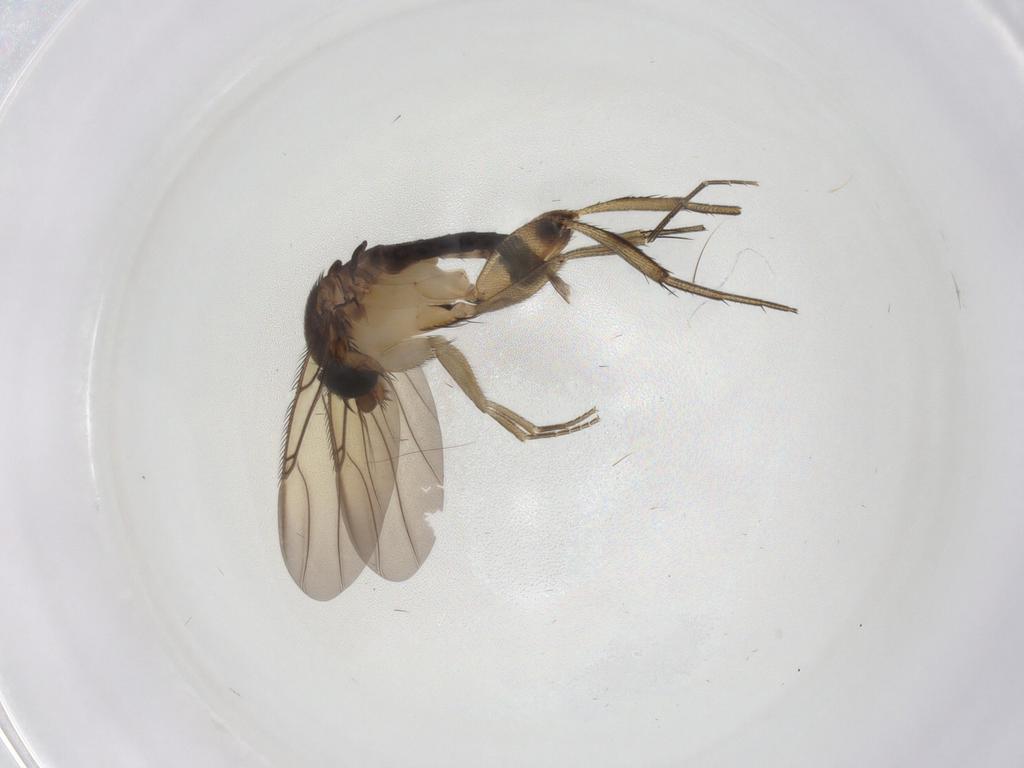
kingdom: Animalia
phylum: Arthropoda
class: Insecta
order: Diptera
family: Phoridae
